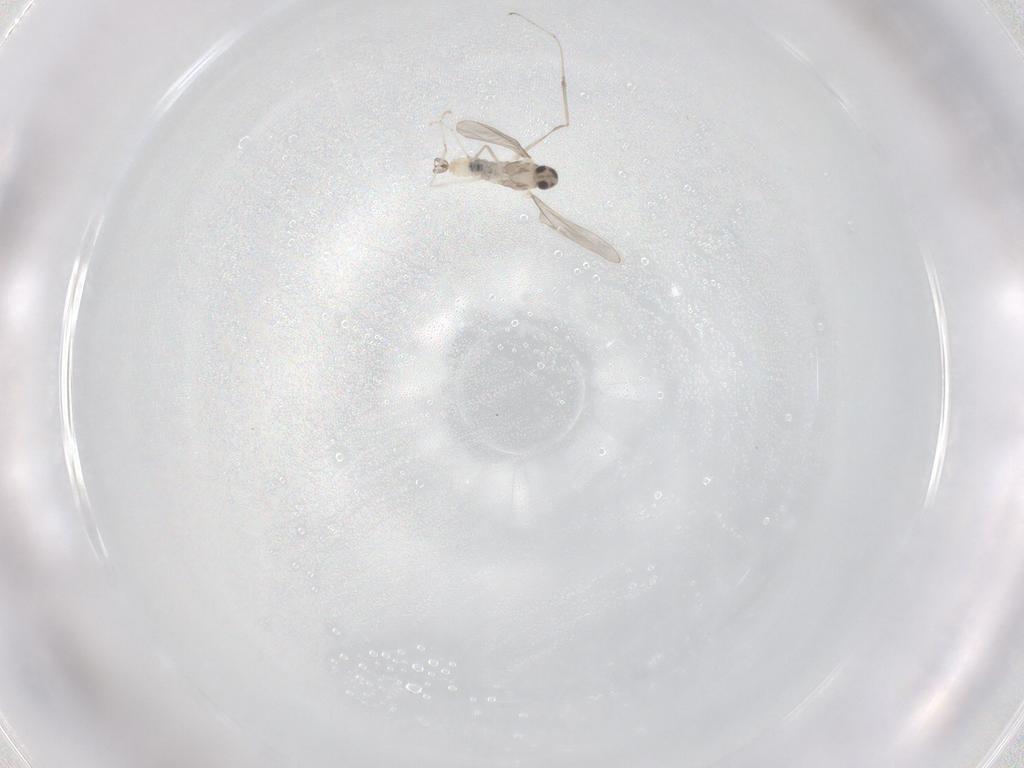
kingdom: Animalia
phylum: Arthropoda
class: Insecta
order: Diptera
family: Cecidomyiidae
